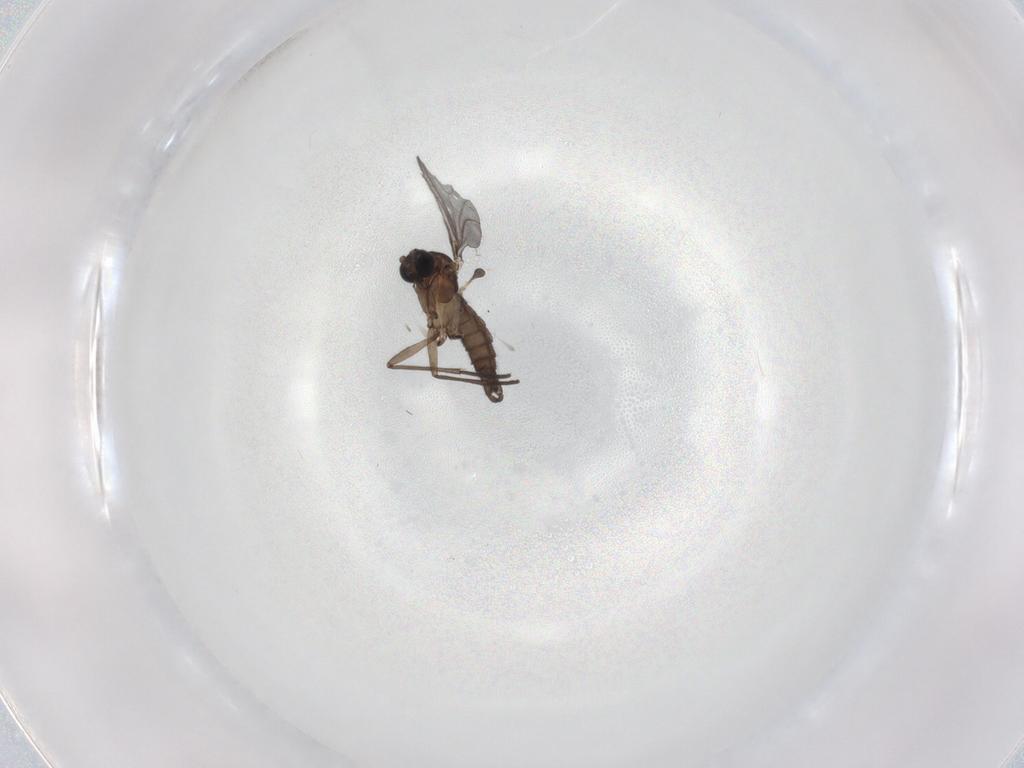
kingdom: Animalia
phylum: Arthropoda
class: Insecta
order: Diptera
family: Sciaridae
